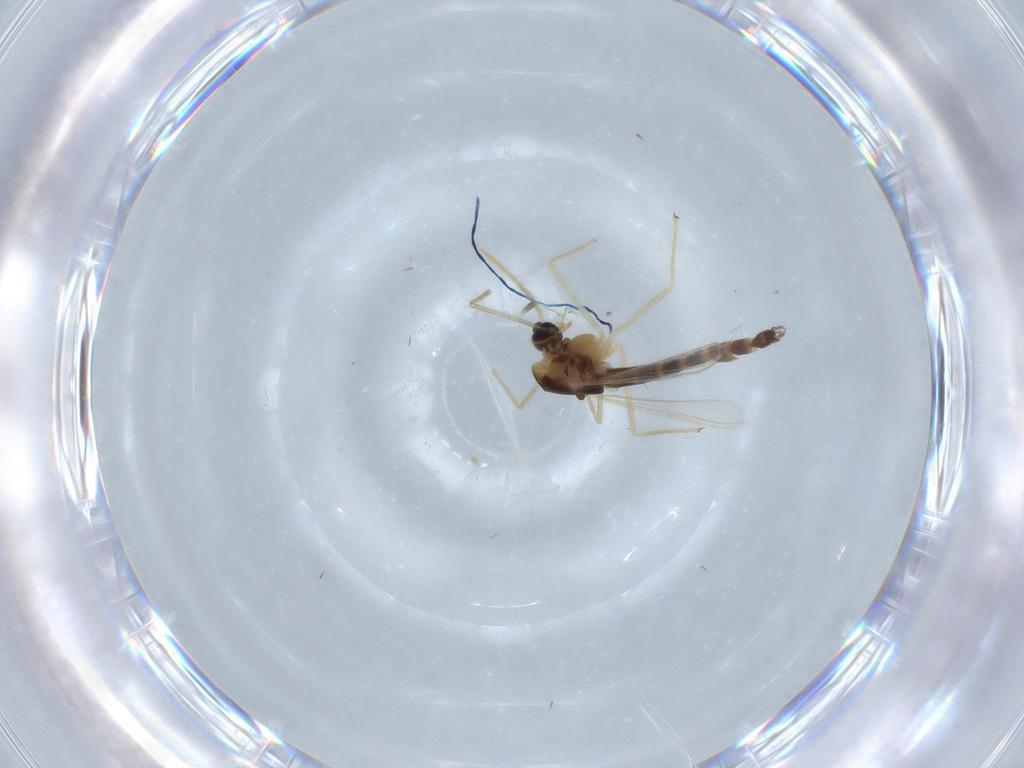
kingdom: Animalia
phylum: Arthropoda
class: Insecta
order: Diptera
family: Chironomidae
